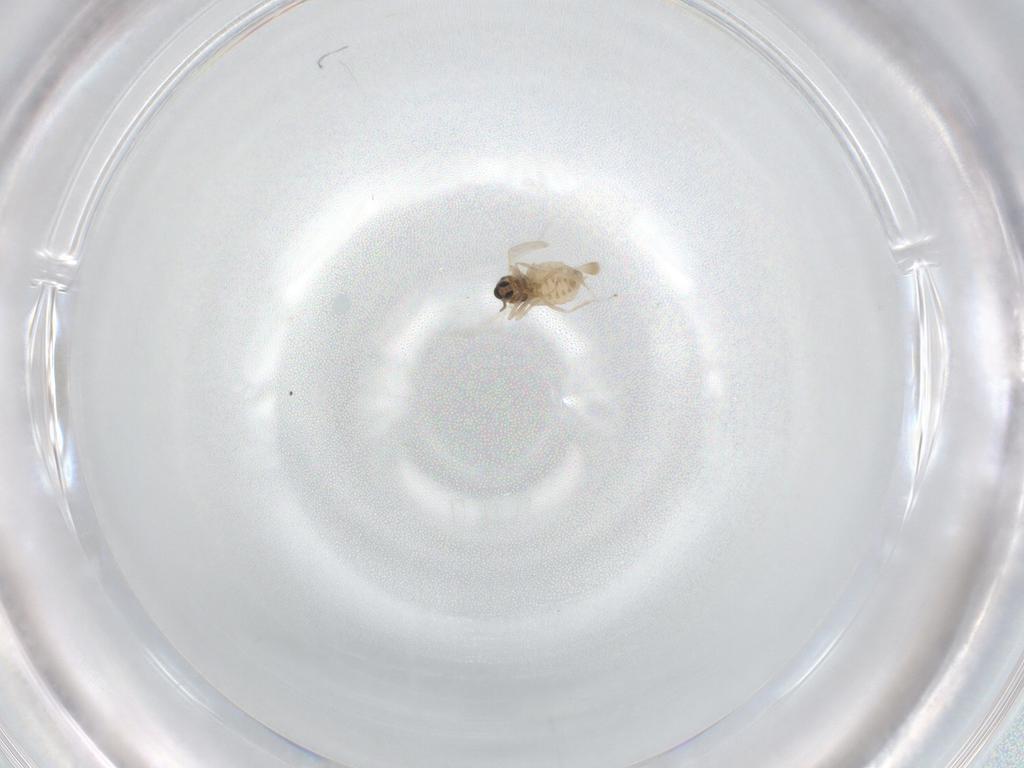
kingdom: Animalia
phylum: Arthropoda
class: Insecta
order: Diptera
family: Cecidomyiidae
